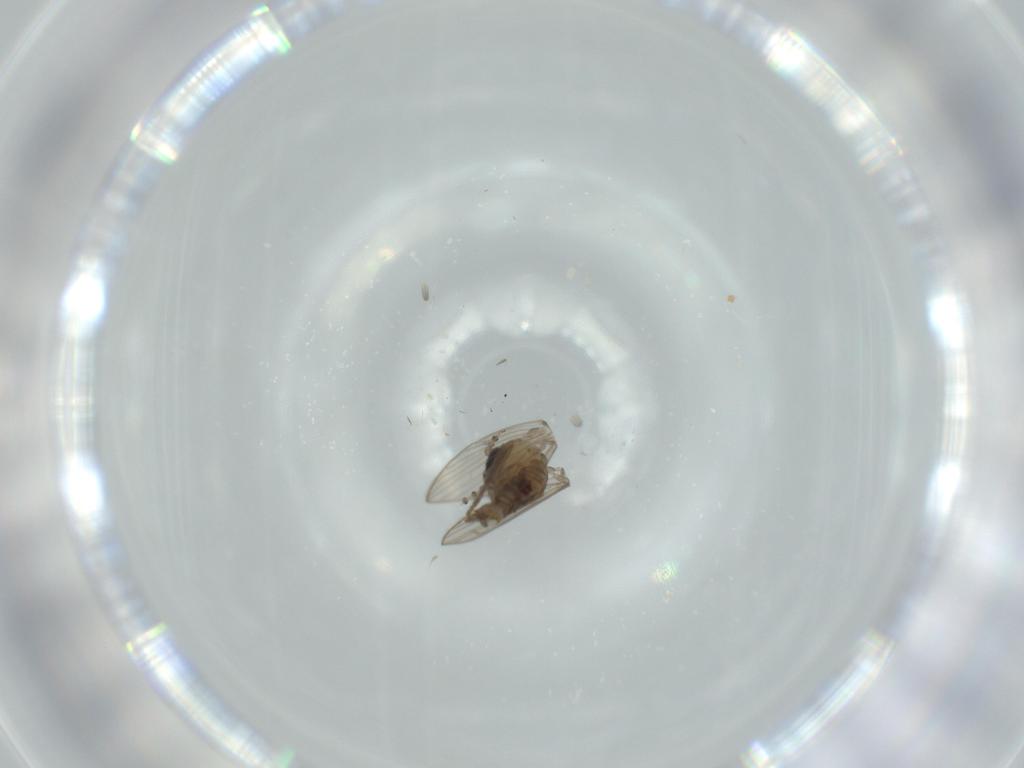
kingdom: Animalia
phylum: Arthropoda
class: Insecta
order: Diptera
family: Psychodidae
